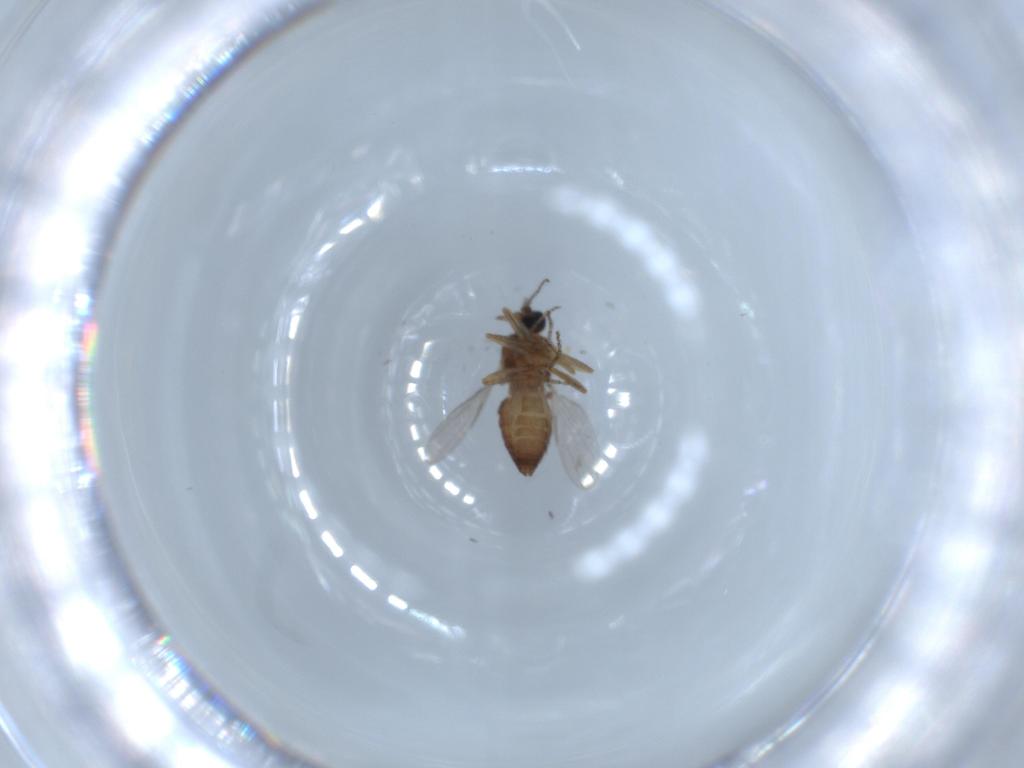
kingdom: Animalia
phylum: Arthropoda
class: Insecta
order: Diptera
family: Ceratopogonidae
